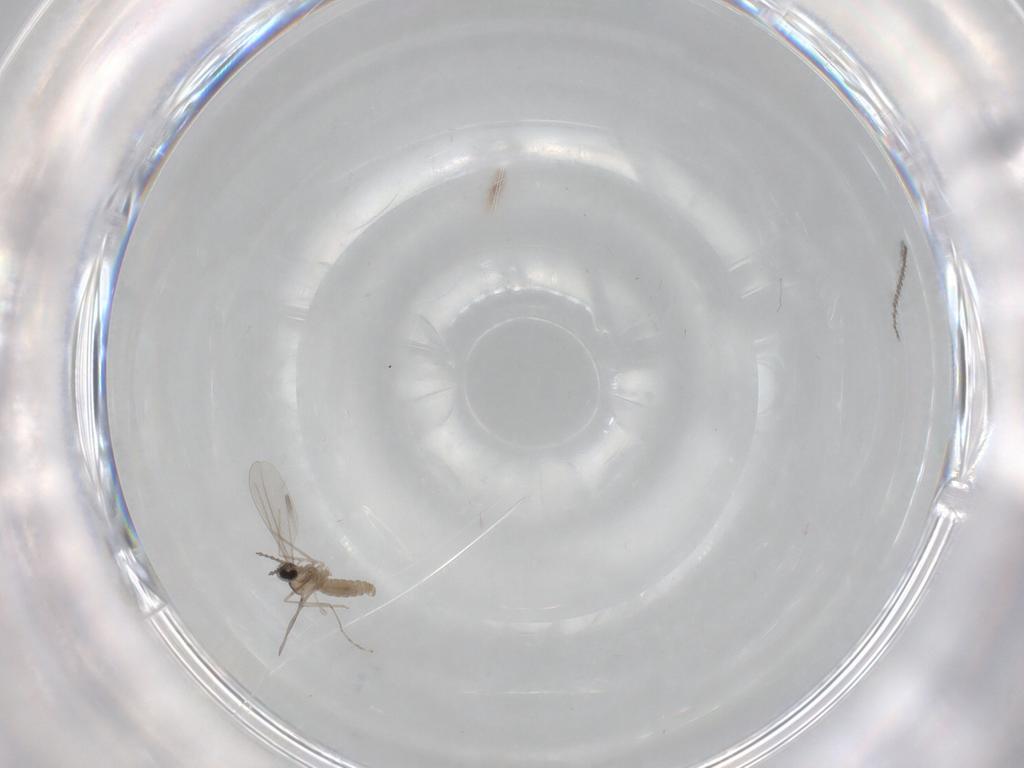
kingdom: Animalia
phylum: Arthropoda
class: Insecta
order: Diptera
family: Cecidomyiidae
